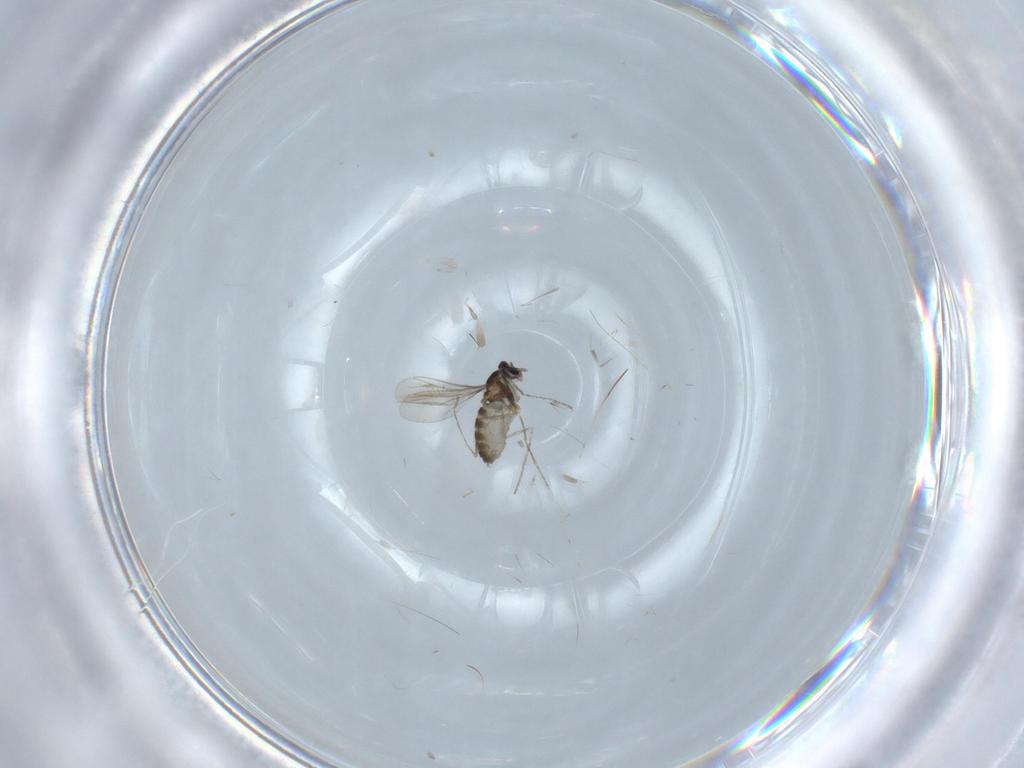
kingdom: Animalia
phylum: Arthropoda
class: Insecta
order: Diptera
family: Cecidomyiidae
